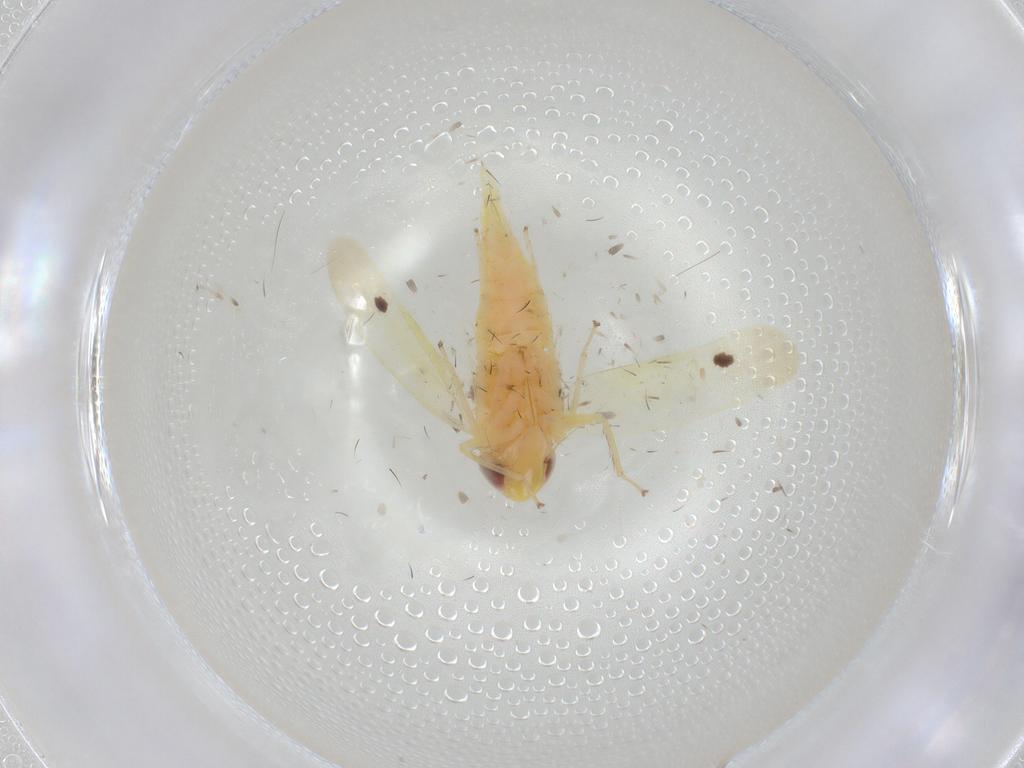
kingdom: Animalia
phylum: Arthropoda
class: Insecta
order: Hemiptera
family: Cicadellidae
